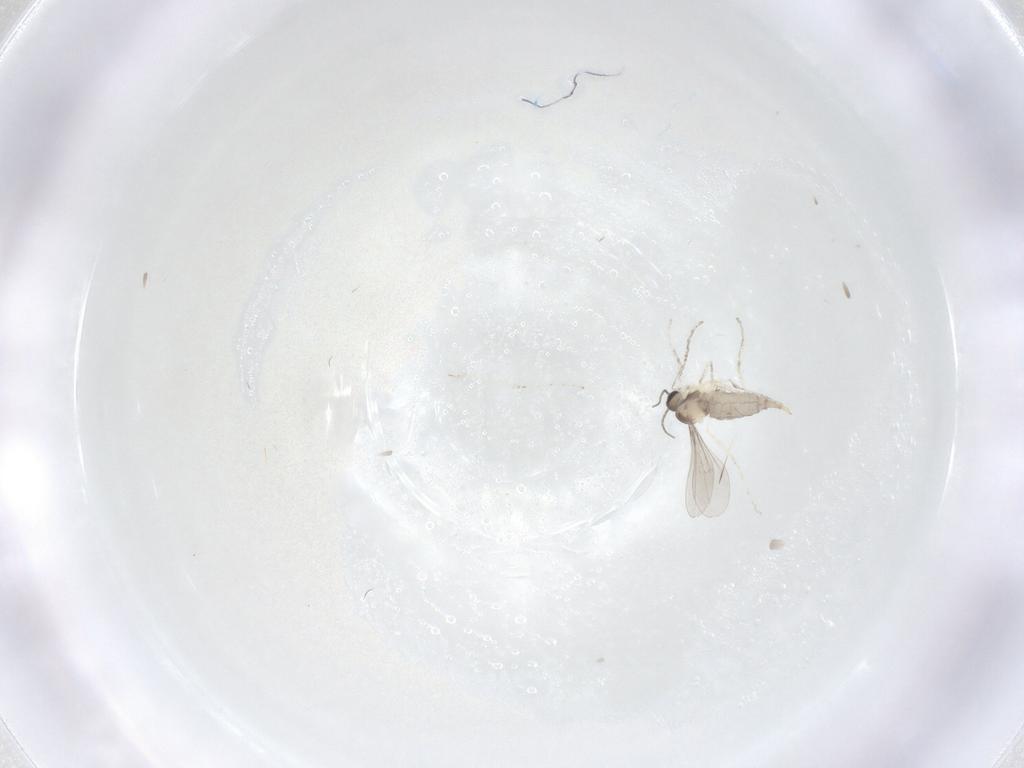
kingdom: Animalia
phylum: Arthropoda
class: Insecta
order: Diptera
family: Cecidomyiidae
